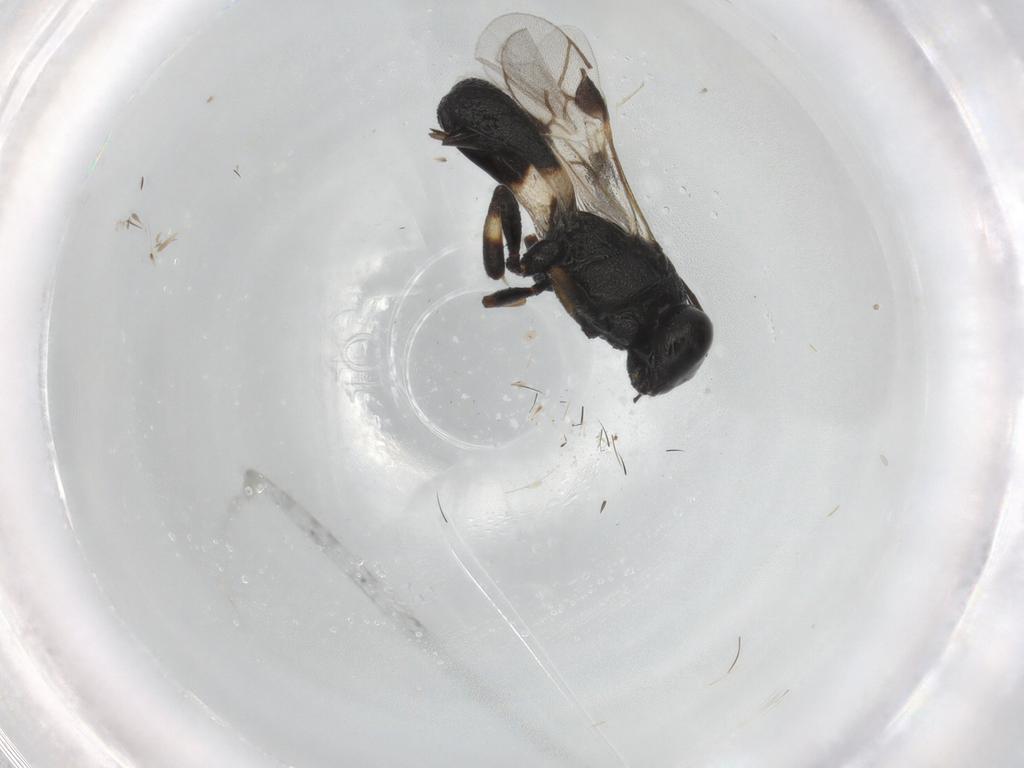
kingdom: Animalia
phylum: Arthropoda
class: Insecta
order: Hymenoptera
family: Braconidae
